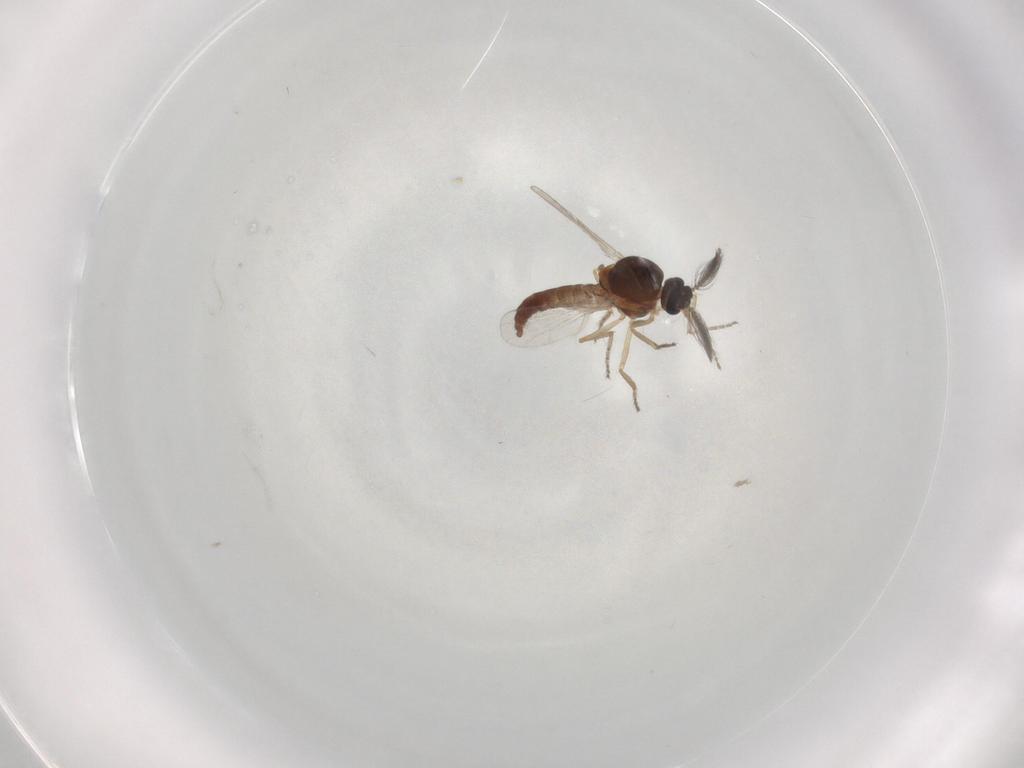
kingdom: Animalia
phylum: Arthropoda
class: Insecta
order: Diptera
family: Ceratopogonidae
